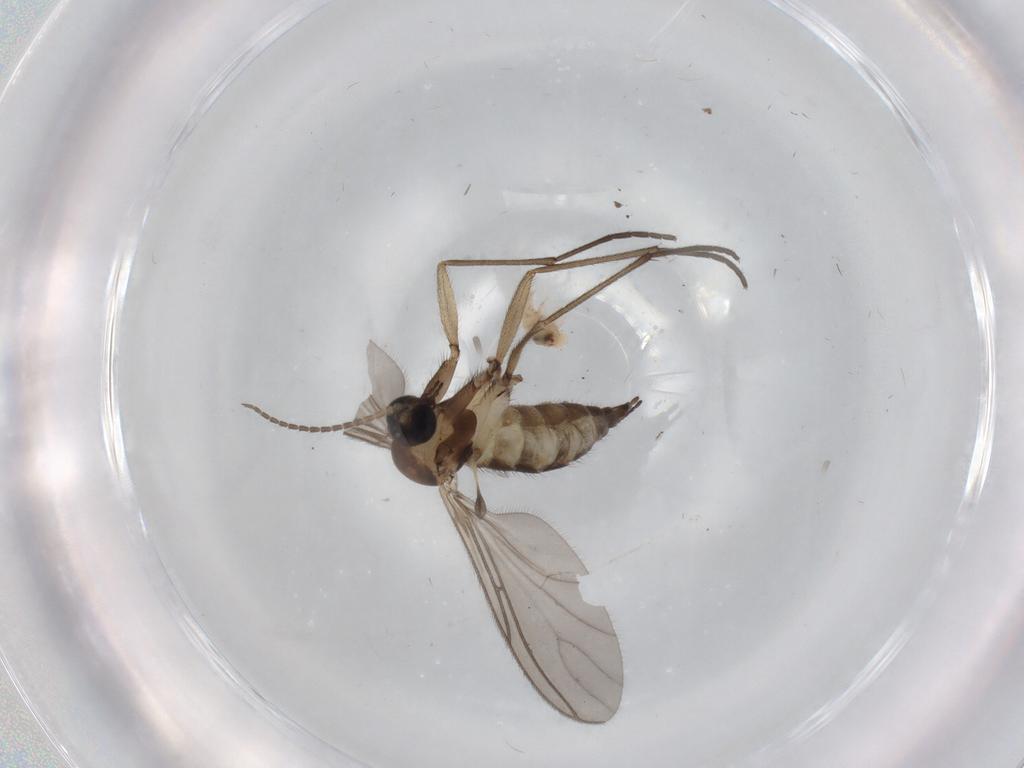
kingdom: Animalia
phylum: Arthropoda
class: Insecta
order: Diptera
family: Sciaridae
